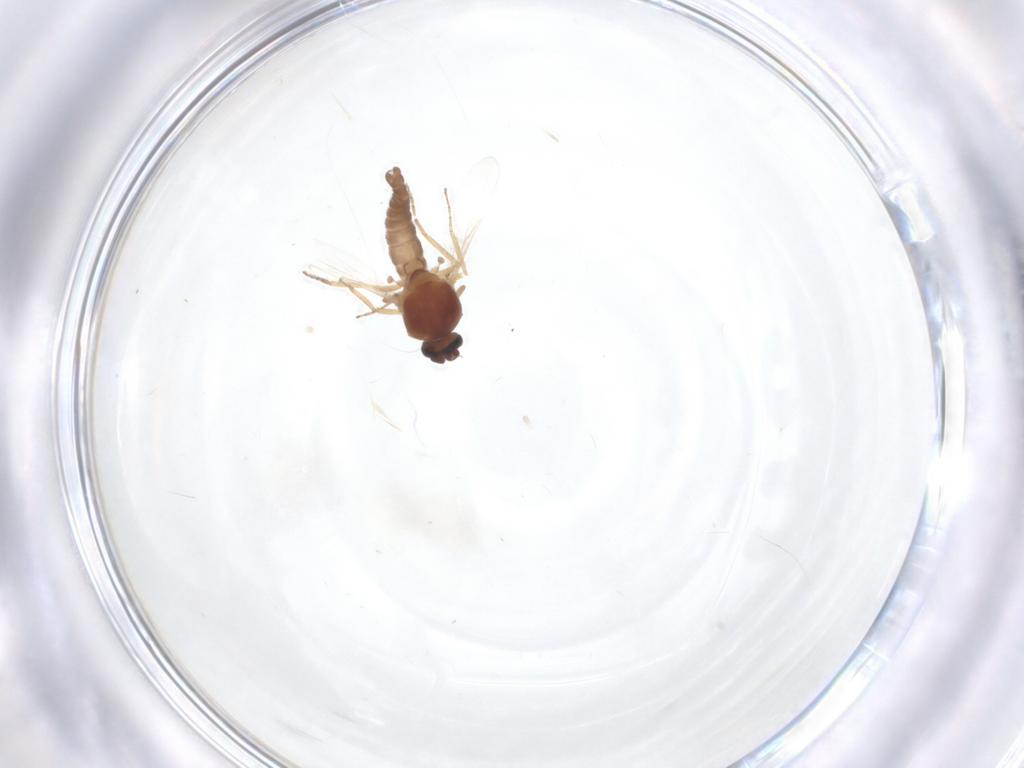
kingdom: Animalia
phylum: Arthropoda
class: Insecta
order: Diptera
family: Ceratopogonidae
